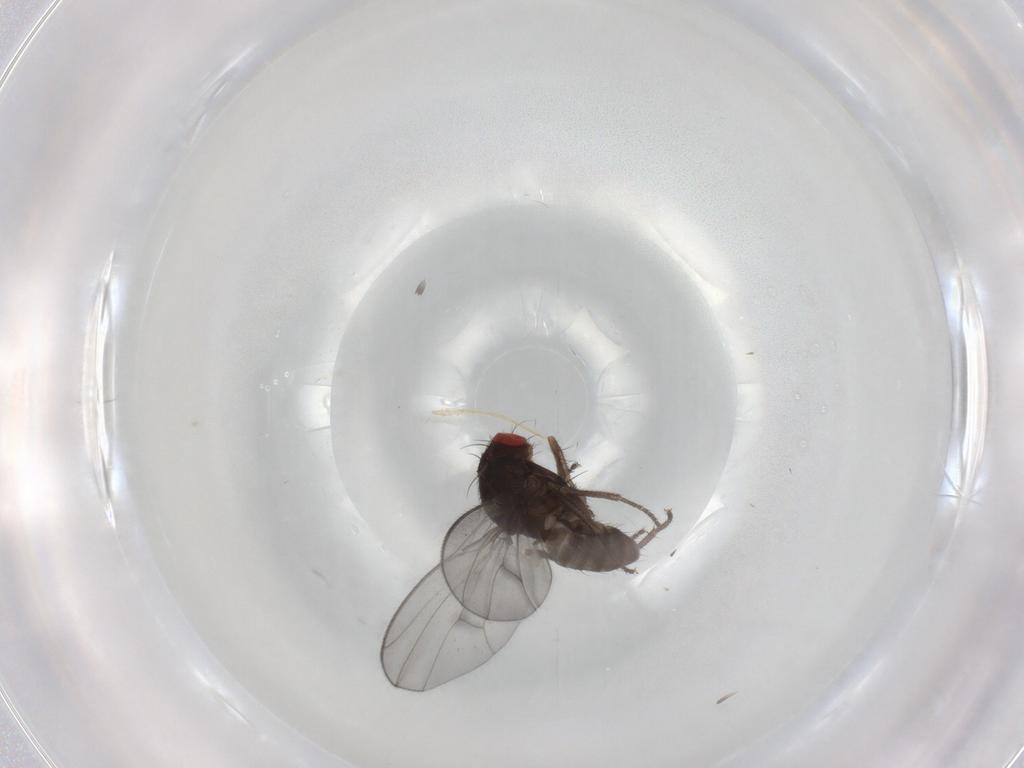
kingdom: Animalia
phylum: Arthropoda
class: Insecta
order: Diptera
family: Drosophilidae
